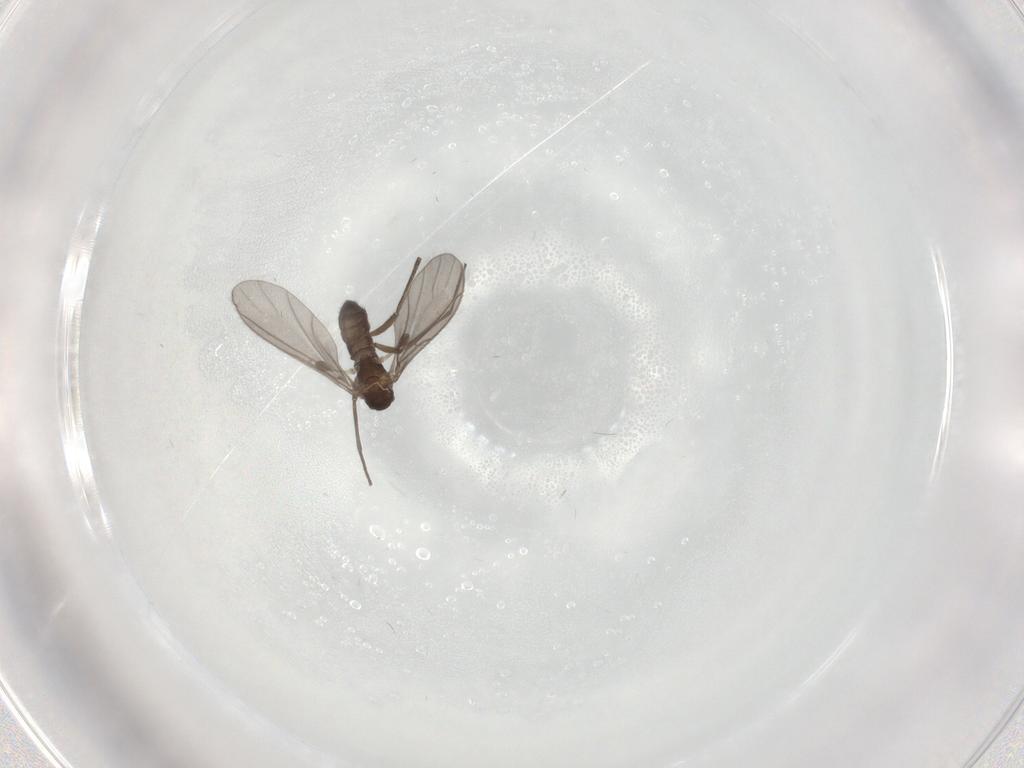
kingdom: Animalia
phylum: Arthropoda
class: Insecta
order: Diptera
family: Sciaridae
